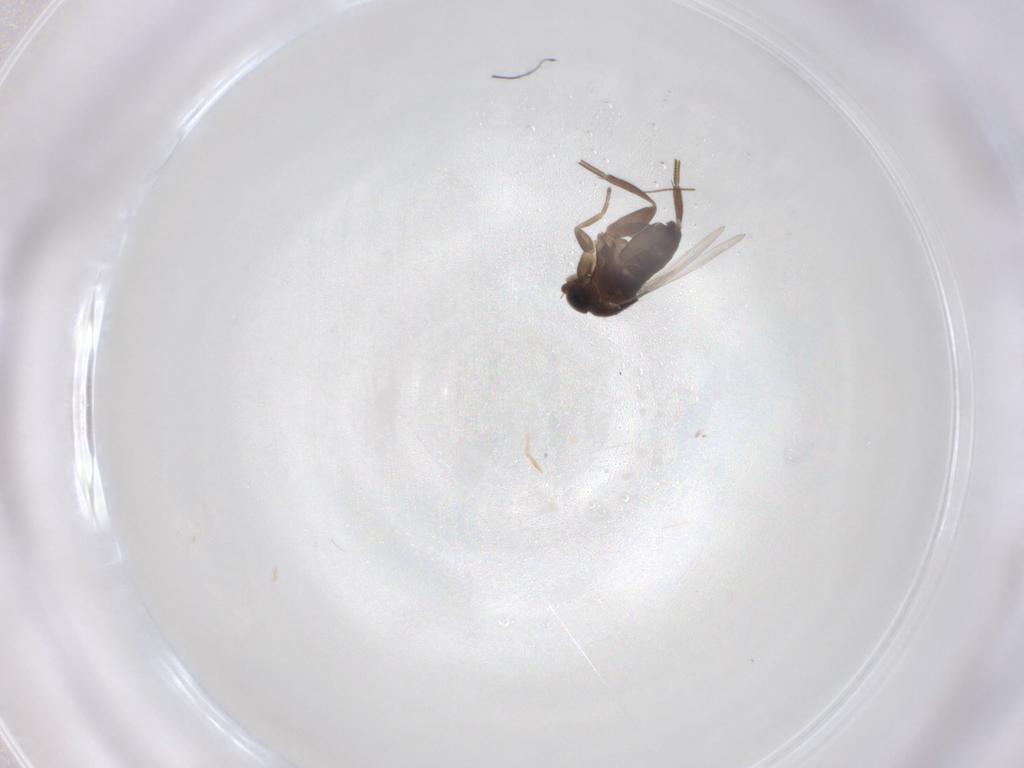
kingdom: Animalia
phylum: Arthropoda
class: Insecta
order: Diptera
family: Phoridae
